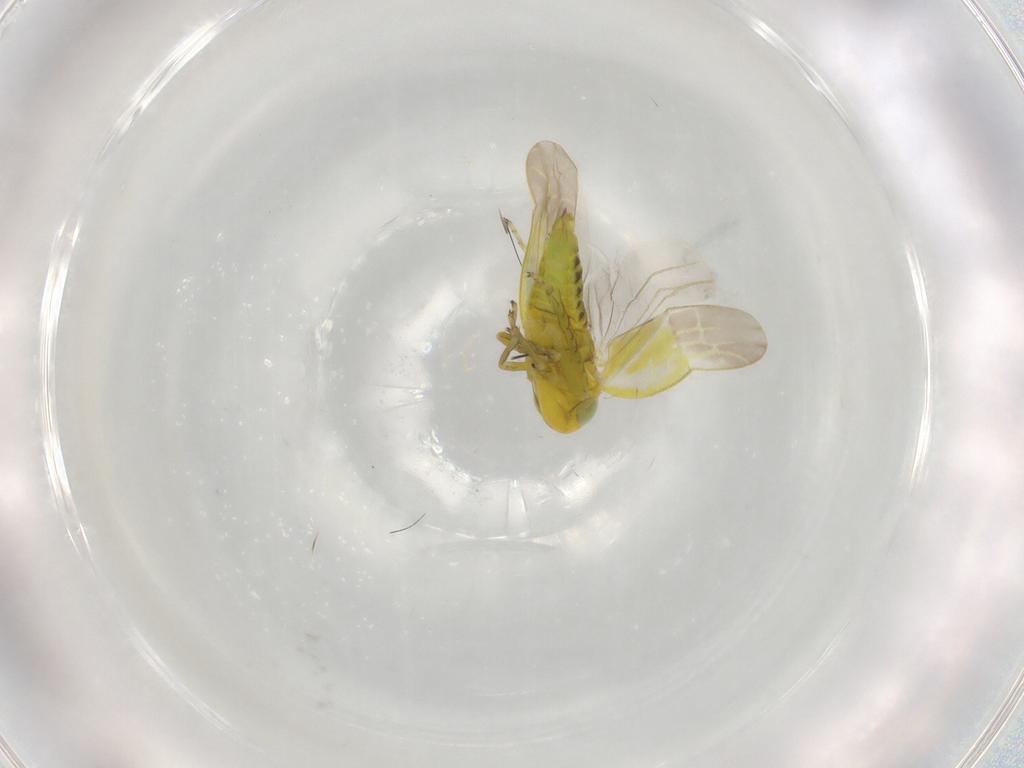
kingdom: Animalia
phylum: Arthropoda
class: Insecta
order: Hemiptera
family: Cicadellidae
